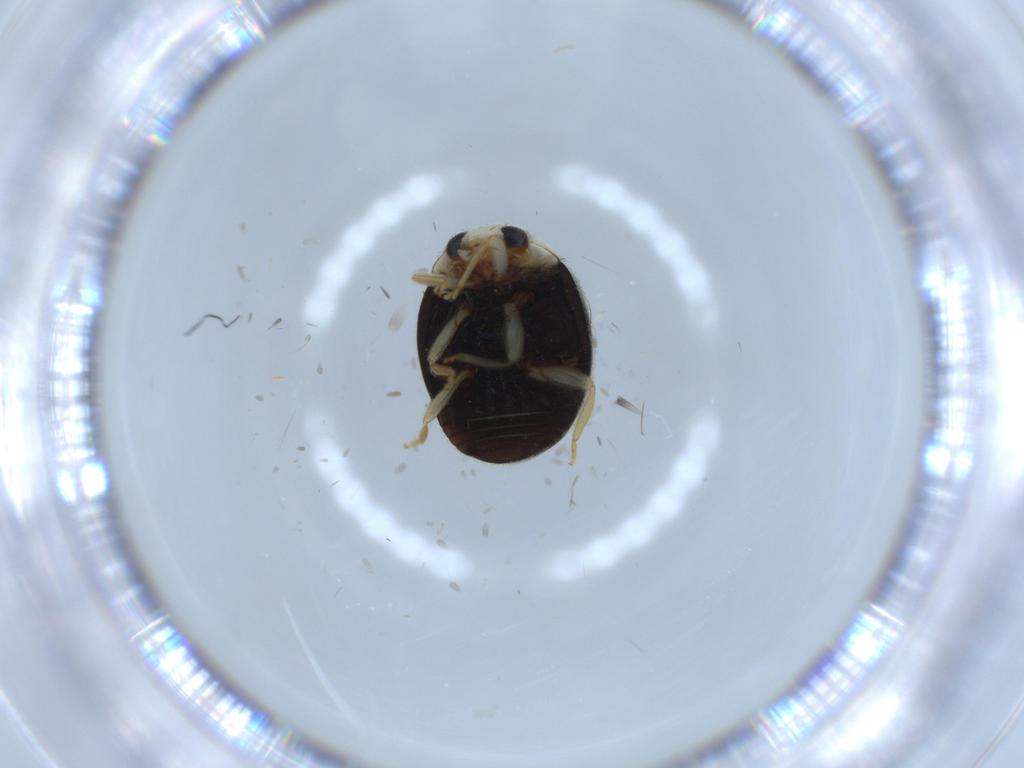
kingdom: Animalia
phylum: Arthropoda
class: Insecta
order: Coleoptera
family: Coccinellidae
